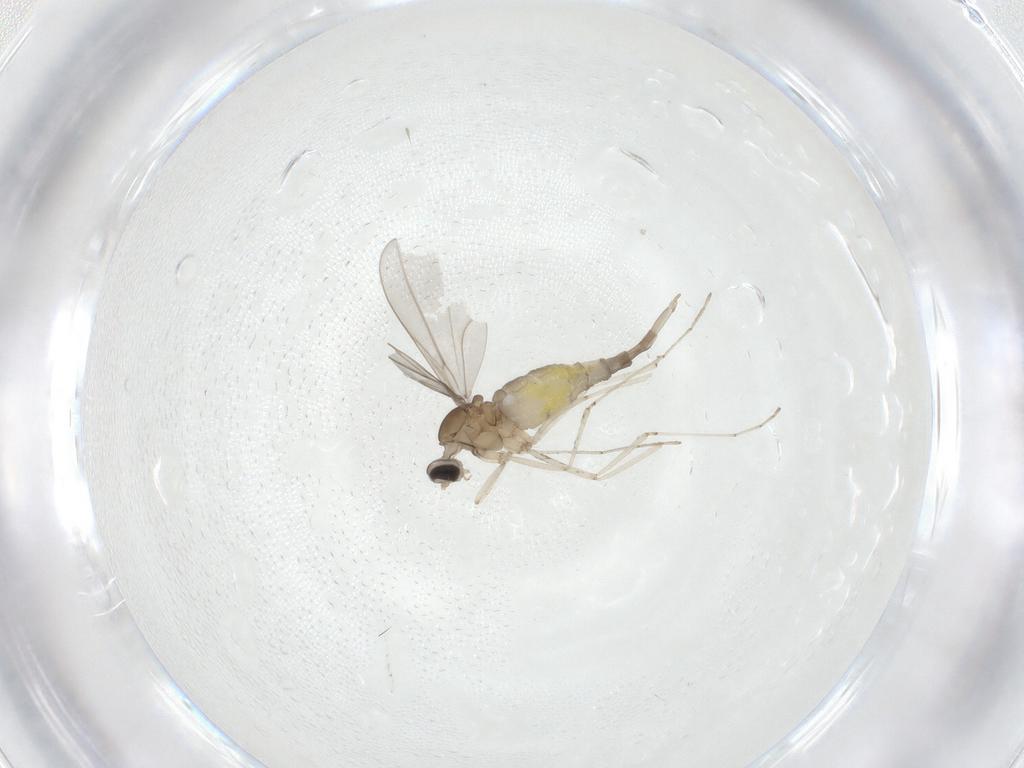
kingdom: Animalia
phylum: Arthropoda
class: Insecta
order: Diptera
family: Cecidomyiidae
